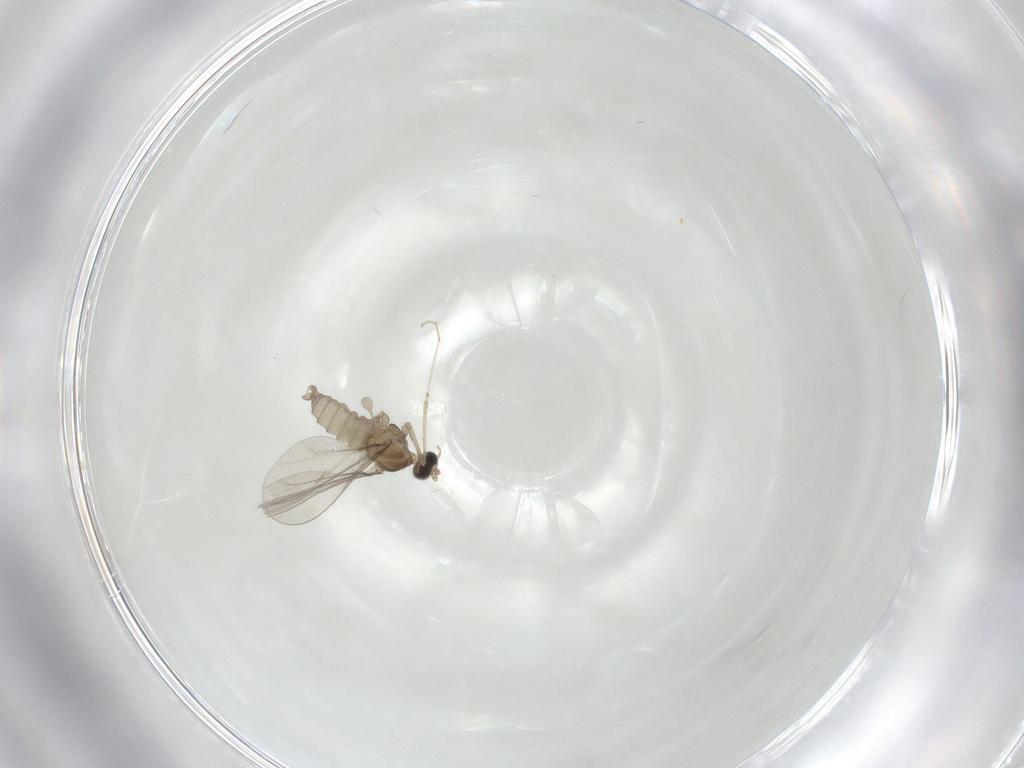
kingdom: Animalia
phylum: Arthropoda
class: Insecta
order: Diptera
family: Cecidomyiidae
